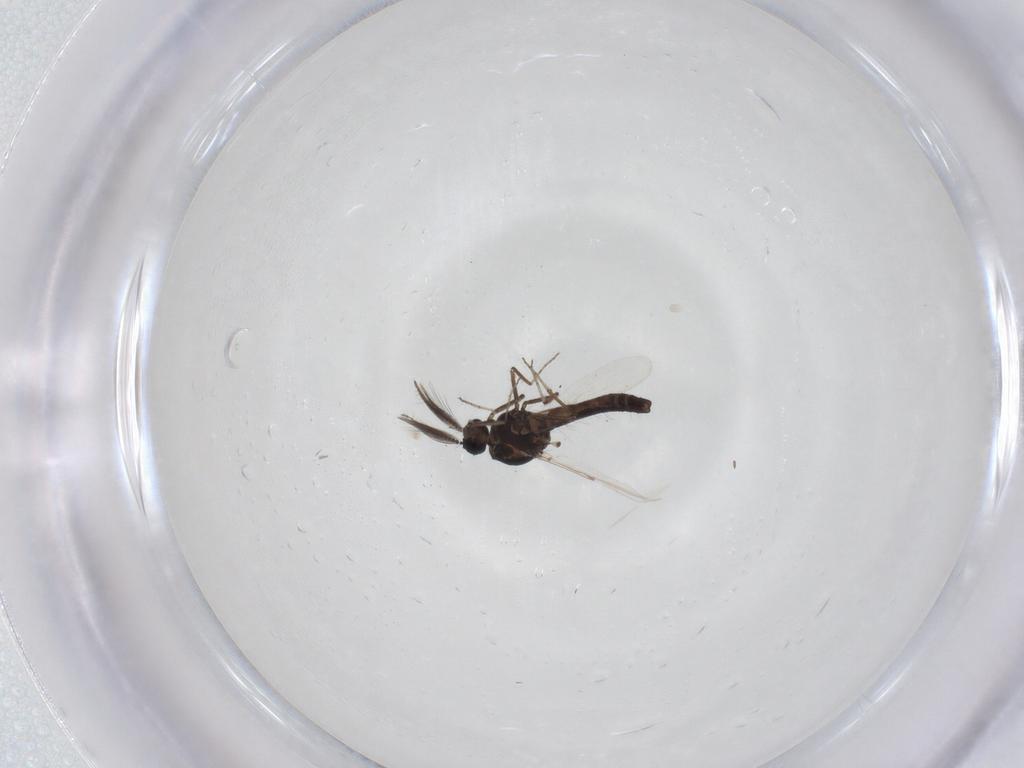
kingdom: Animalia
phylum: Arthropoda
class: Insecta
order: Diptera
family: Ceratopogonidae
